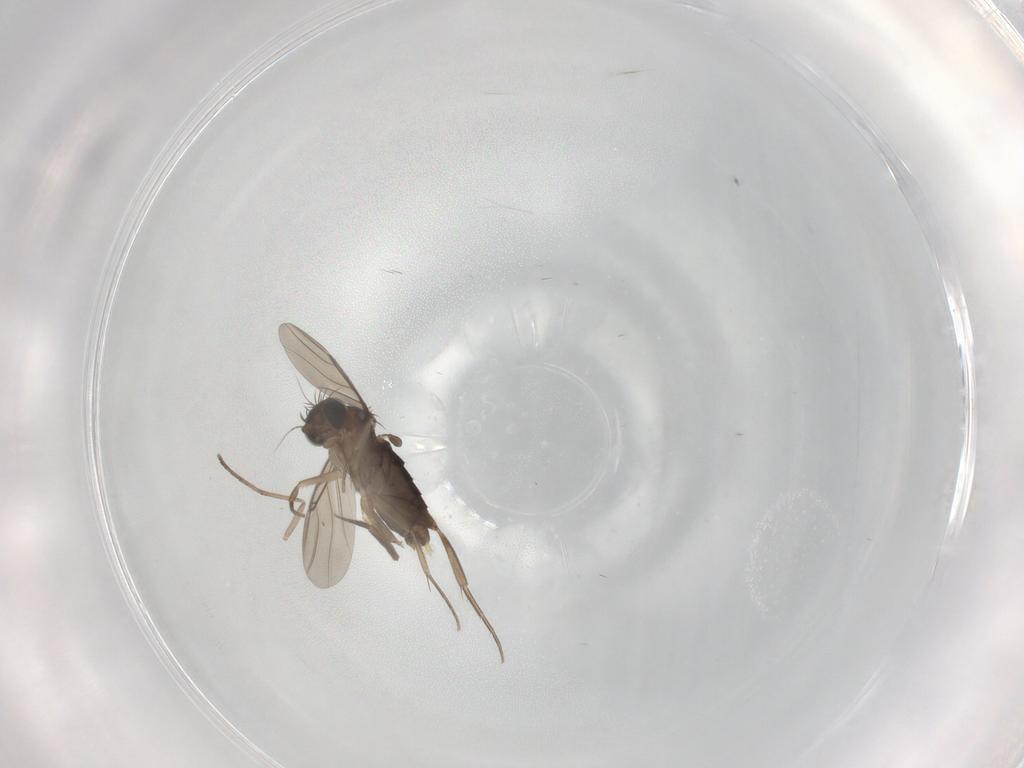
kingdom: Animalia
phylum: Arthropoda
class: Insecta
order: Diptera
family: Phoridae
